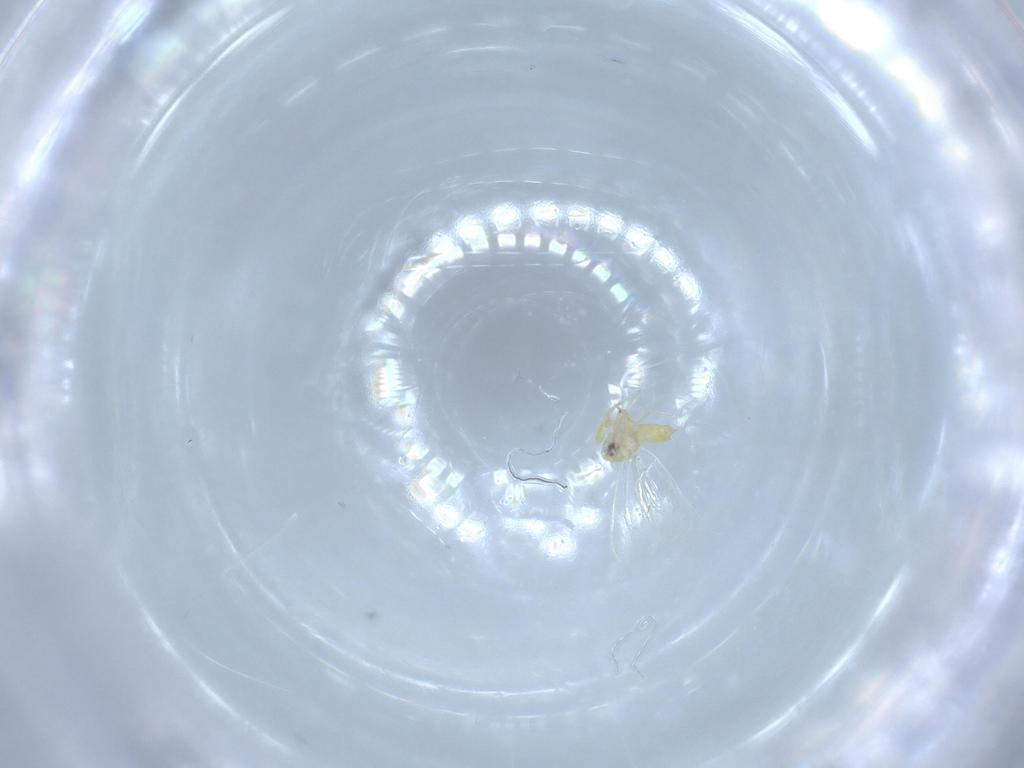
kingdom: Animalia
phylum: Arthropoda
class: Insecta
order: Hemiptera
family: Aleyrodidae
